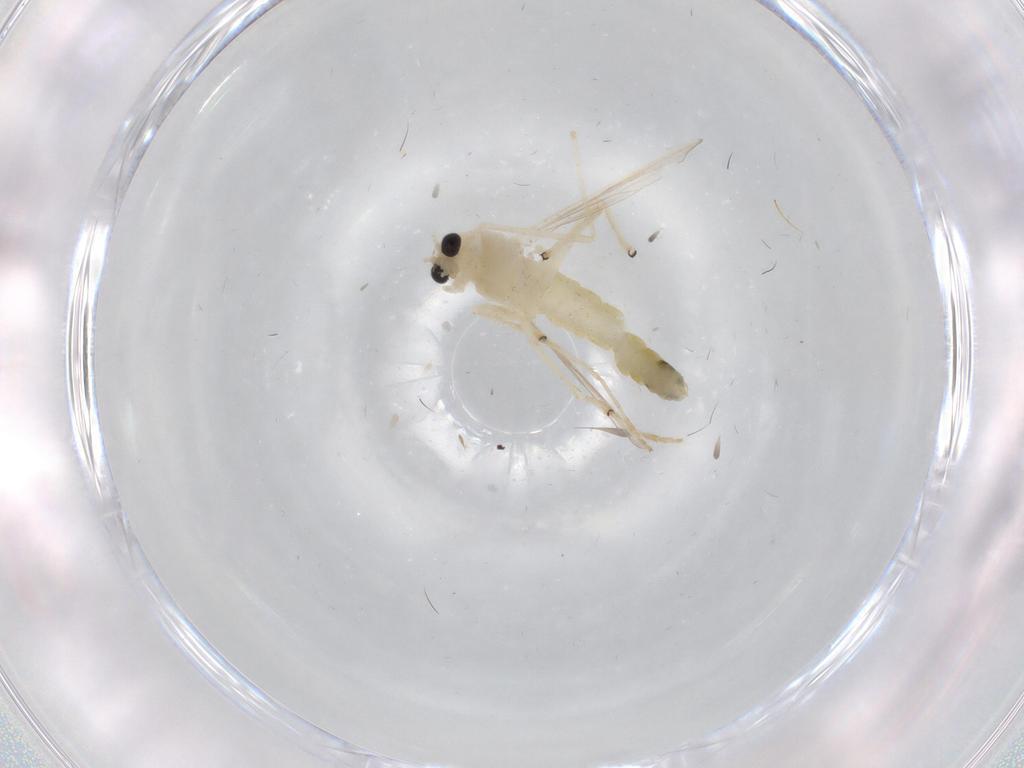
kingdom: Animalia
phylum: Arthropoda
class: Insecta
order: Diptera
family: Chironomidae
